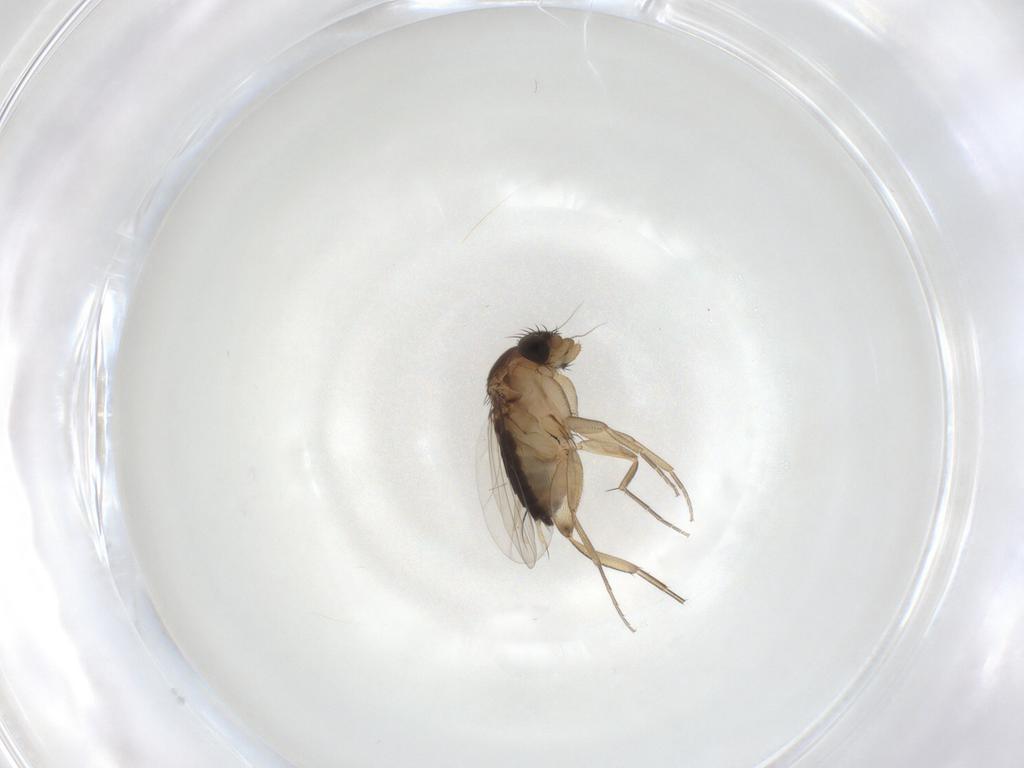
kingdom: Animalia
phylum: Arthropoda
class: Insecta
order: Diptera
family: Phoridae
